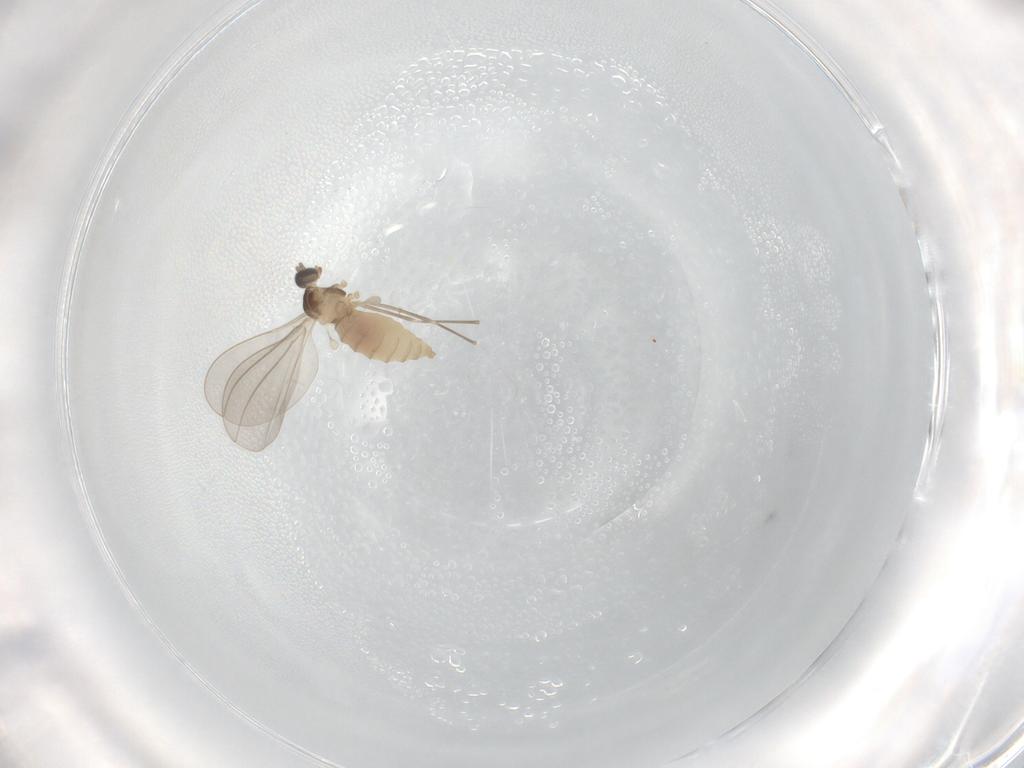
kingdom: Animalia
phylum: Arthropoda
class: Insecta
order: Diptera
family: Cecidomyiidae
